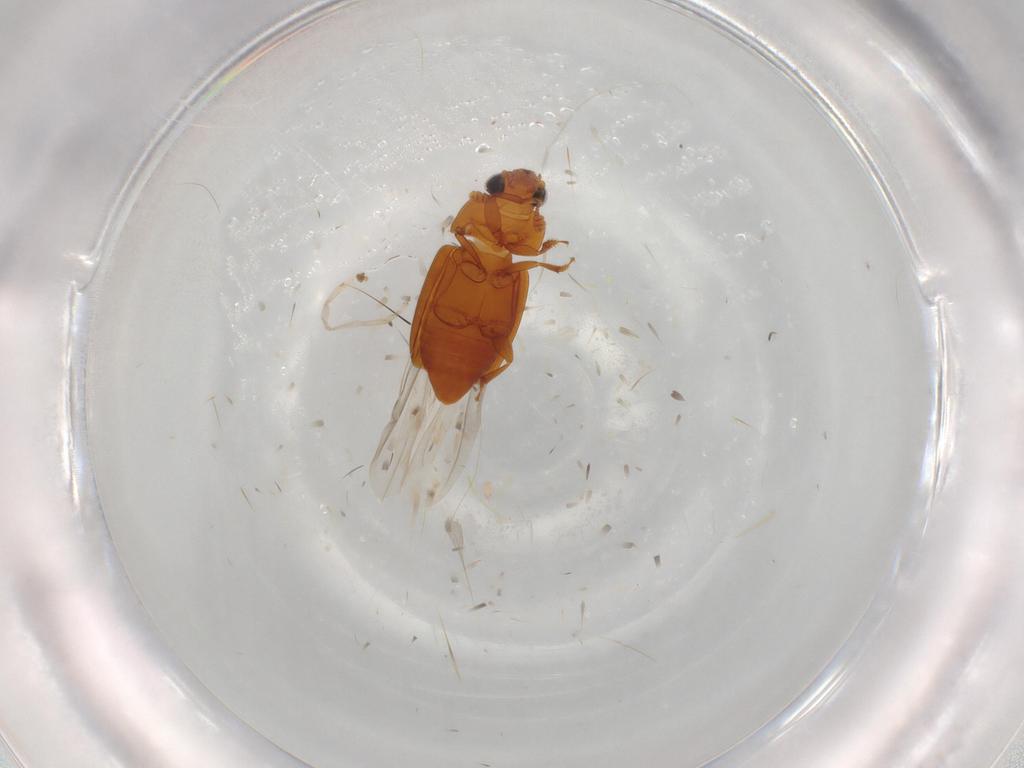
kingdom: Animalia
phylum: Arthropoda
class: Insecta
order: Coleoptera
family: Nitidulidae
